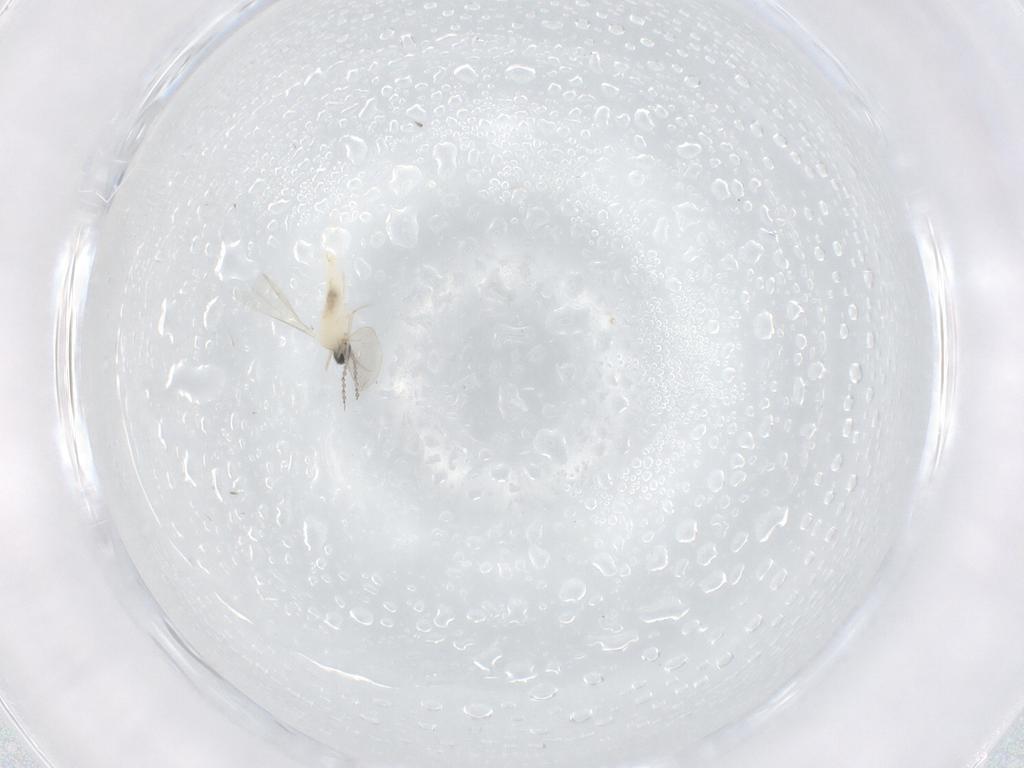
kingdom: Animalia
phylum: Arthropoda
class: Insecta
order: Diptera
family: Cecidomyiidae
